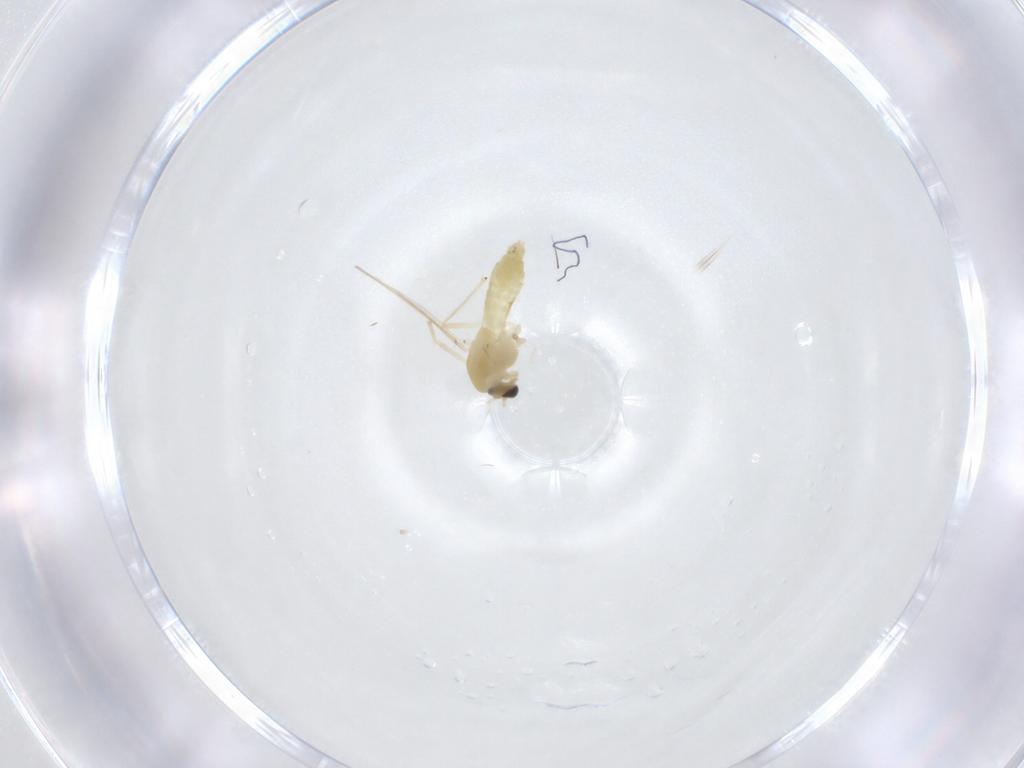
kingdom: Animalia
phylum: Arthropoda
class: Insecta
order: Diptera
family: Chironomidae
